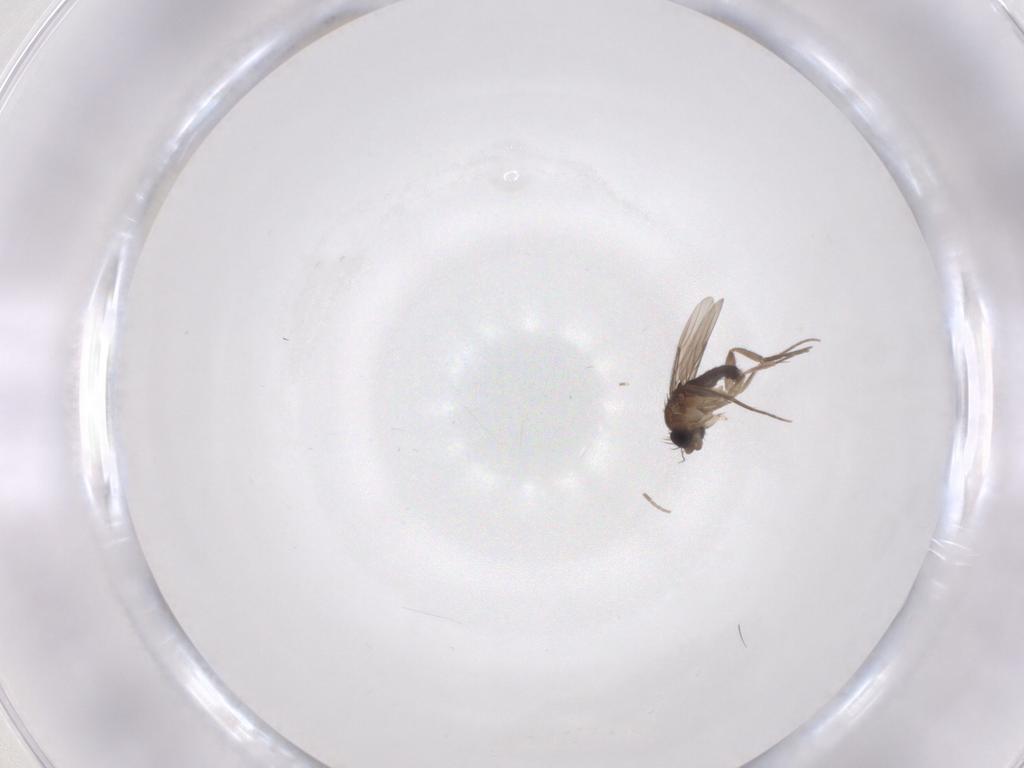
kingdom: Animalia
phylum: Arthropoda
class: Insecta
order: Diptera
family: Phoridae
